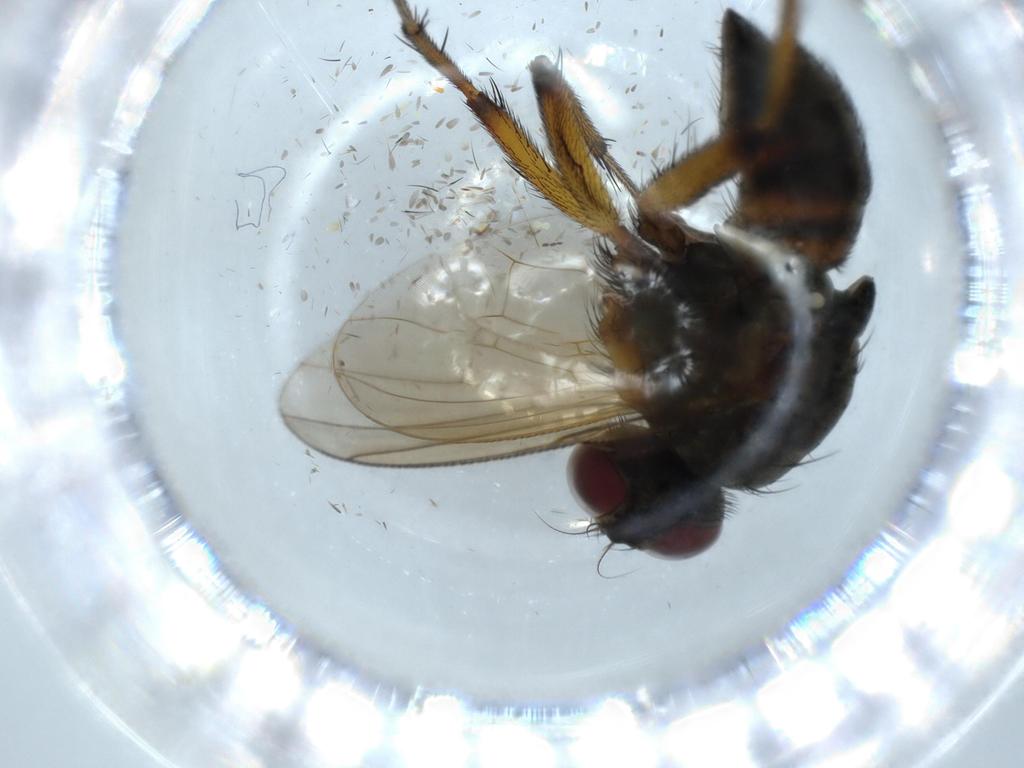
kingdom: Animalia
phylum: Arthropoda
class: Insecta
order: Diptera
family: Muscidae
